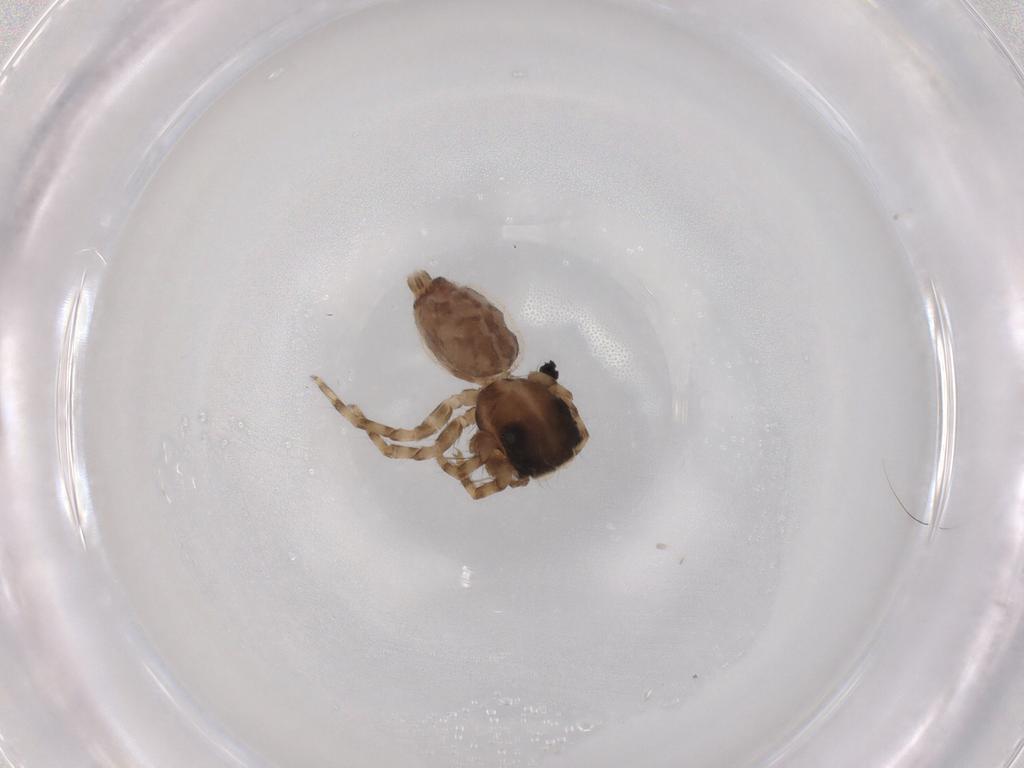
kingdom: Animalia
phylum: Arthropoda
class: Arachnida
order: Araneae
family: Salticidae
